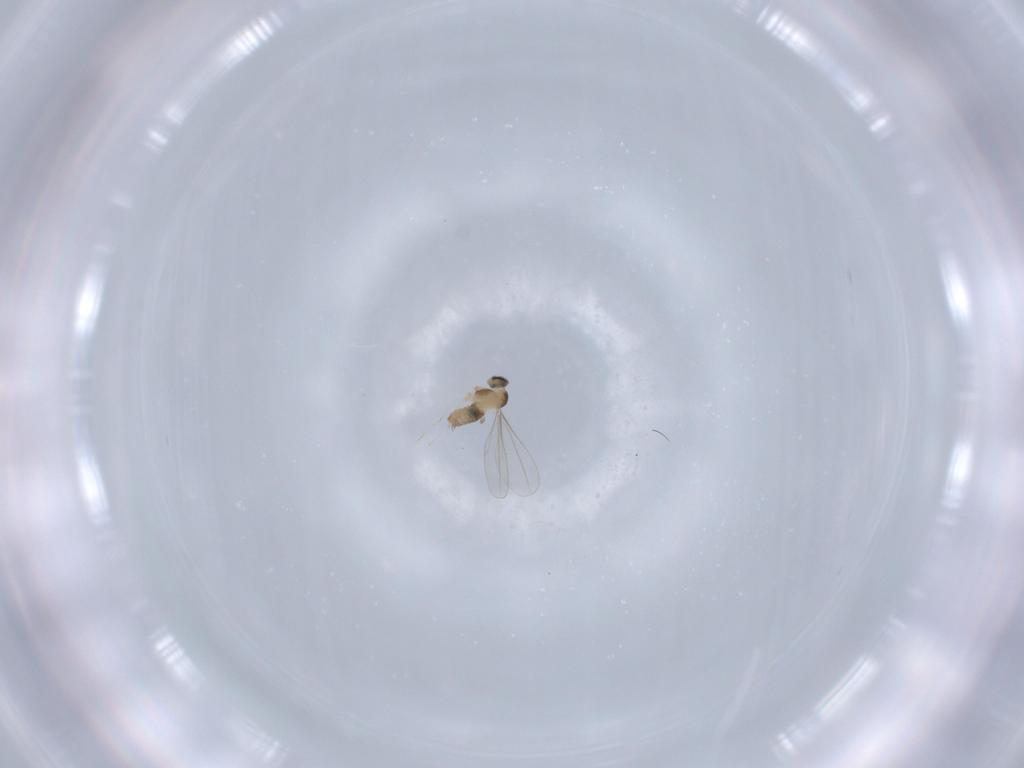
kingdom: Animalia
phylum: Arthropoda
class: Insecta
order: Diptera
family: Cecidomyiidae
